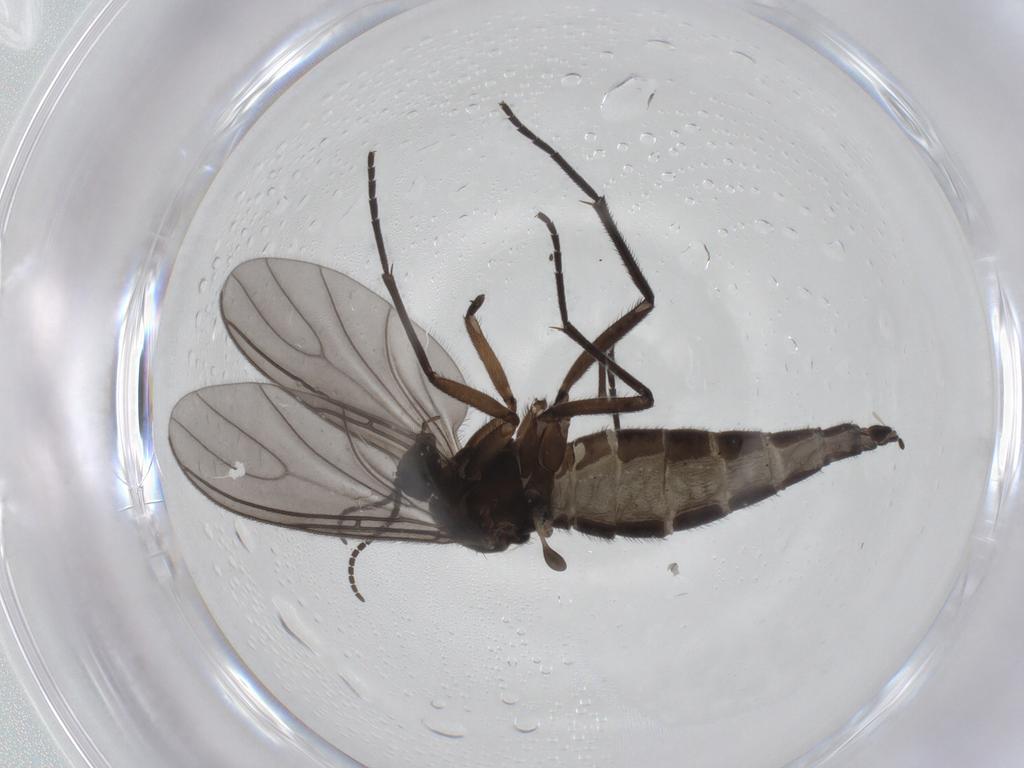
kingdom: Animalia
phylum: Arthropoda
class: Insecta
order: Diptera
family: Sciaridae
